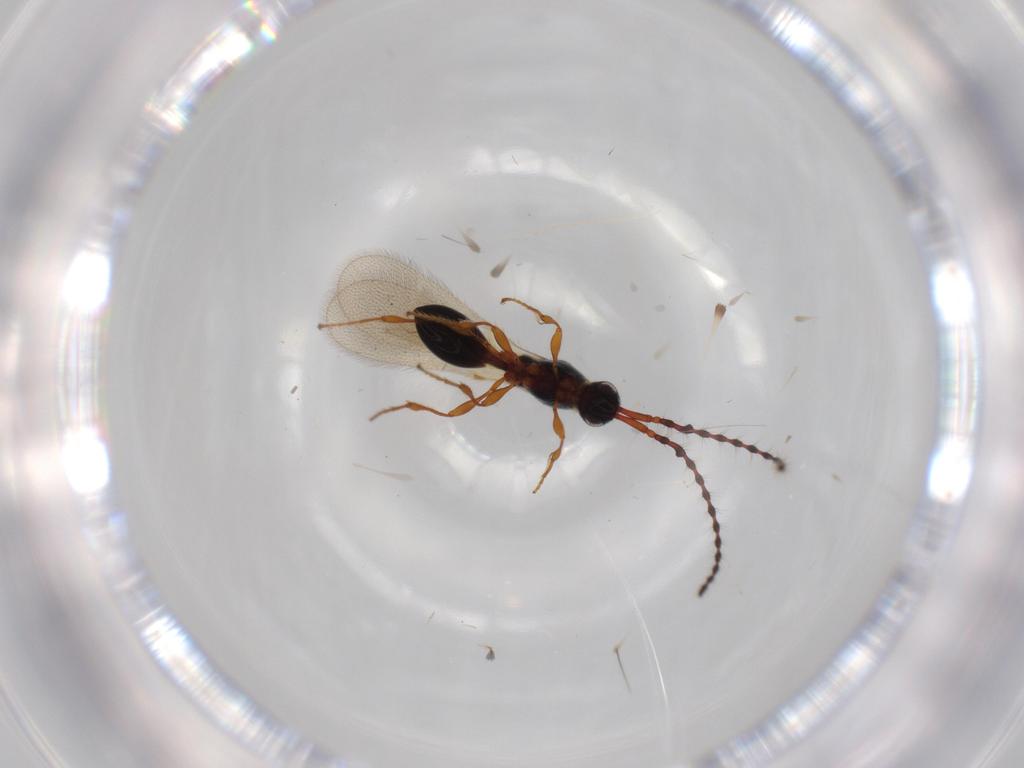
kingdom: Animalia
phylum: Arthropoda
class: Insecta
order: Hymenoptera
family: Diapriidae
